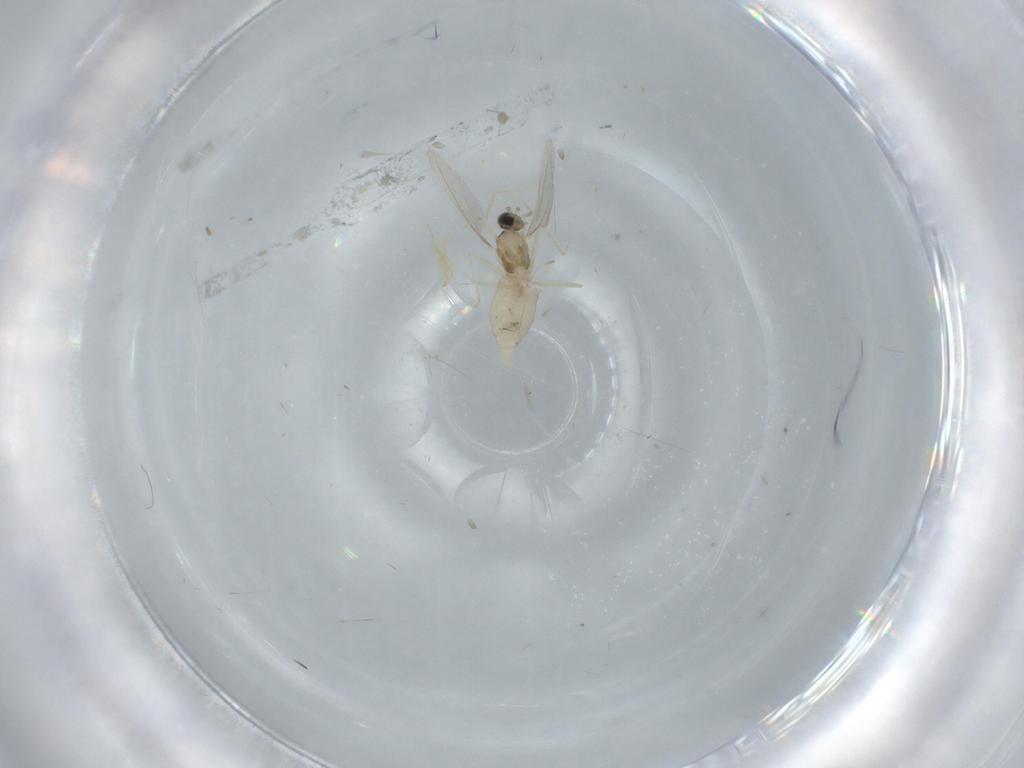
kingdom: Animalia
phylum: Arthropoda
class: Insecta
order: Diptera
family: Cecidomyiidae
